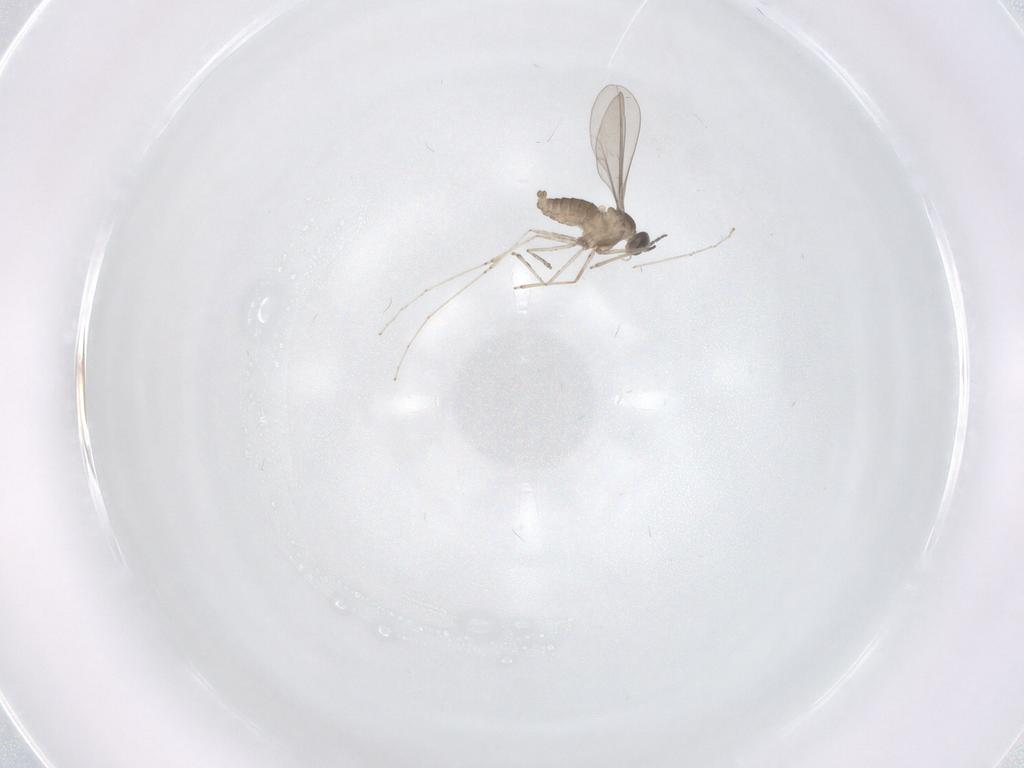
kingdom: Animalia
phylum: Arthropoda
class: Insecta
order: Diptera
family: Cecidomyiidae
